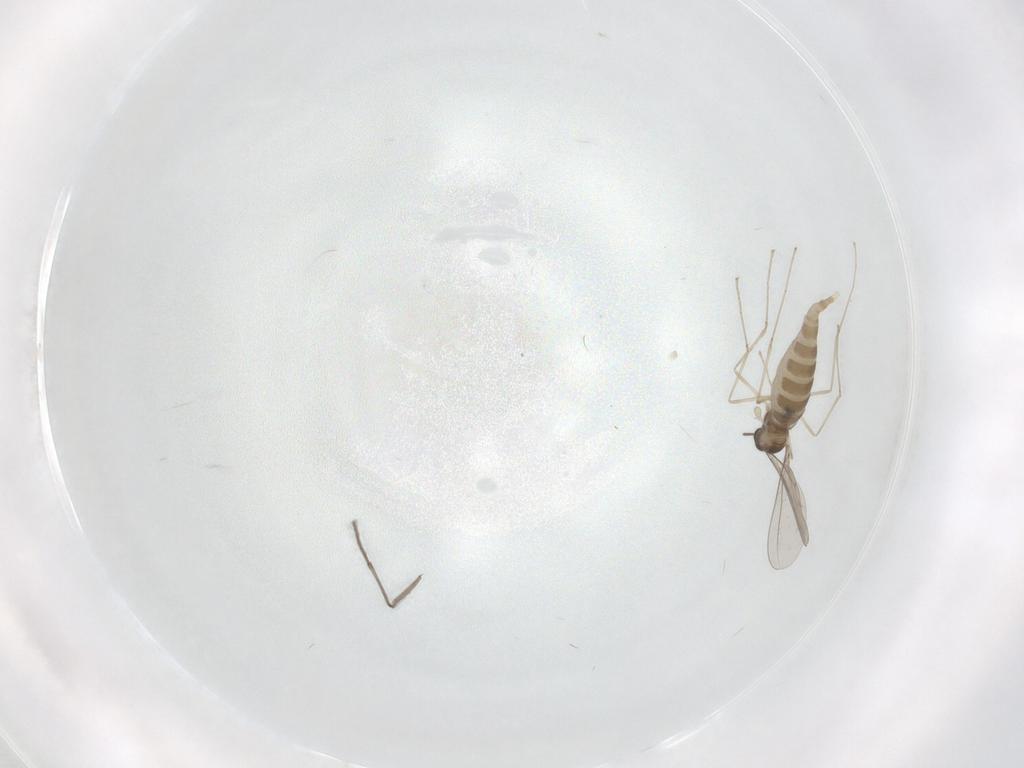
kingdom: Animalia
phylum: Arthropoda
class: Insecta
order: Diptera
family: Sciaridae
